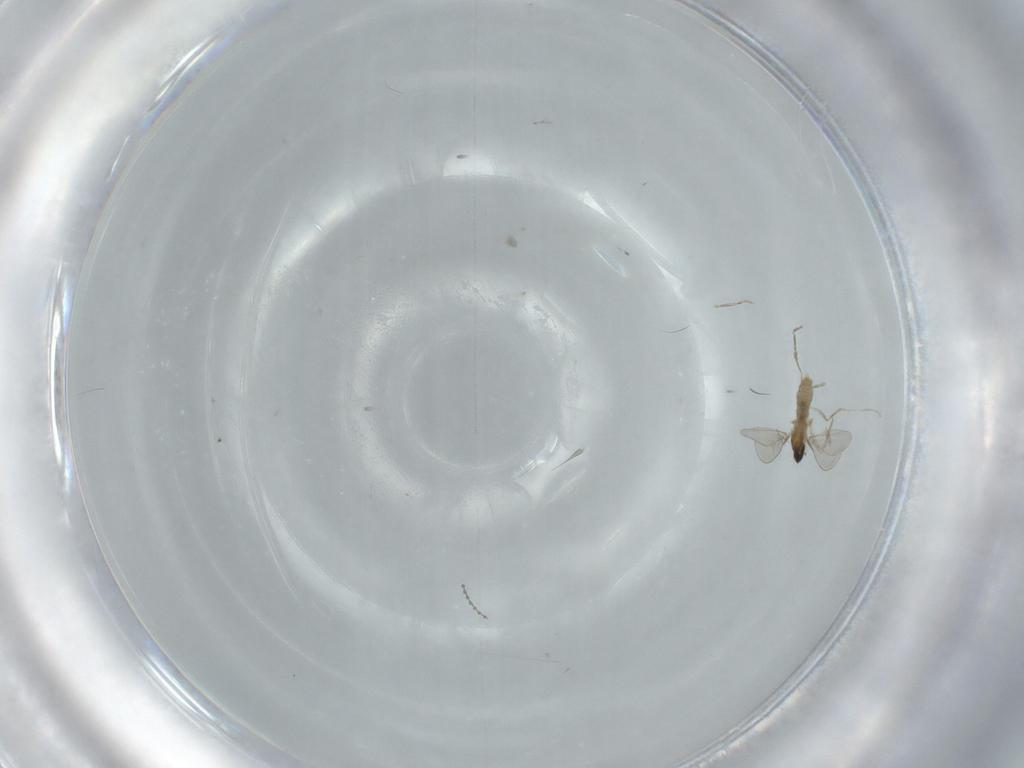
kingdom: Animalia
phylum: Arthropoda
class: Insecta
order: Diptera
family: Cecidomyiidae
